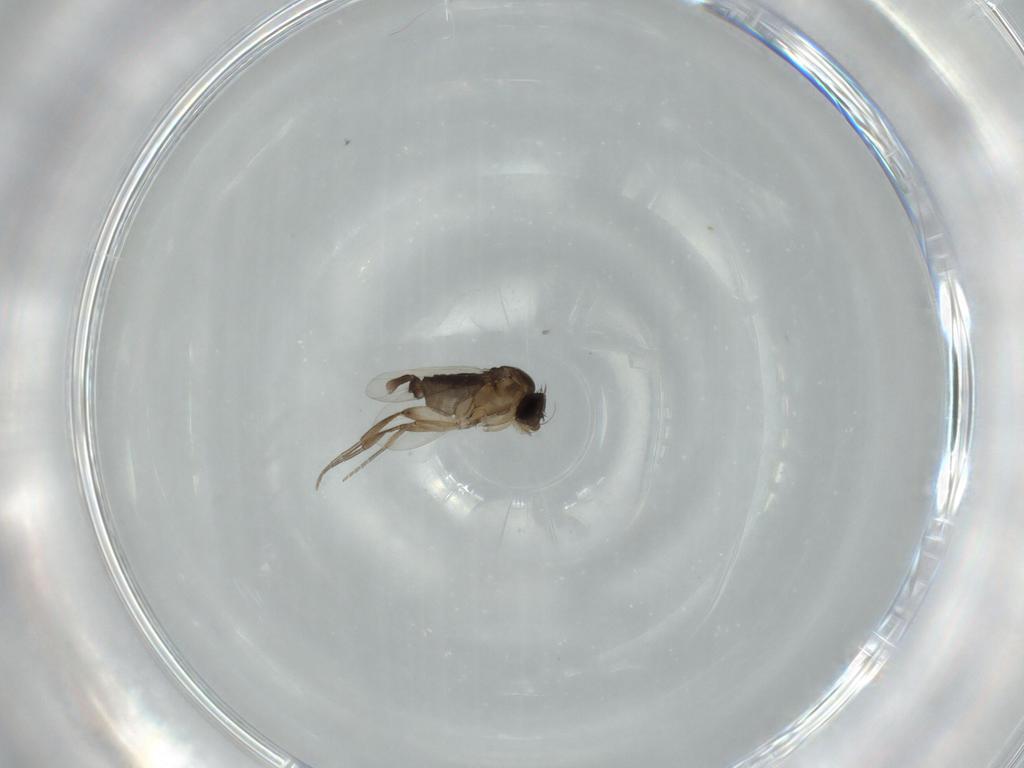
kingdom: Animalia
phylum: Arthropoda
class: Insecta
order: Diptera
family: Phoridae
